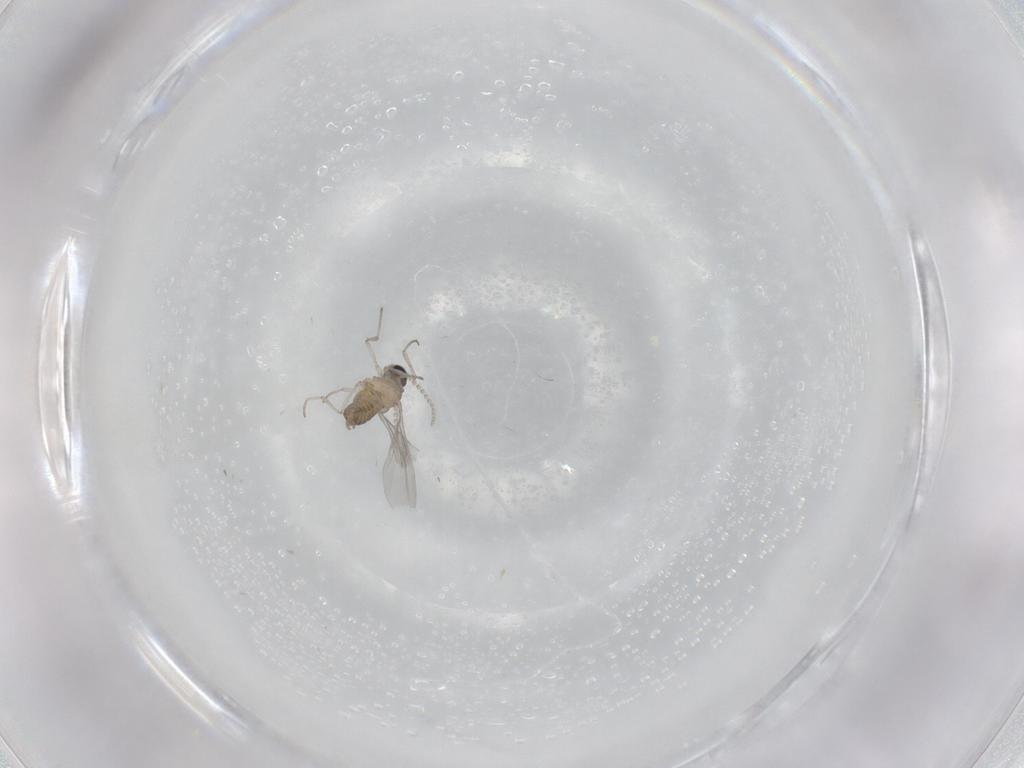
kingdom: Animalia
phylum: Arthropoda
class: Insecta
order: Diptera
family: Cecidomyiidae
